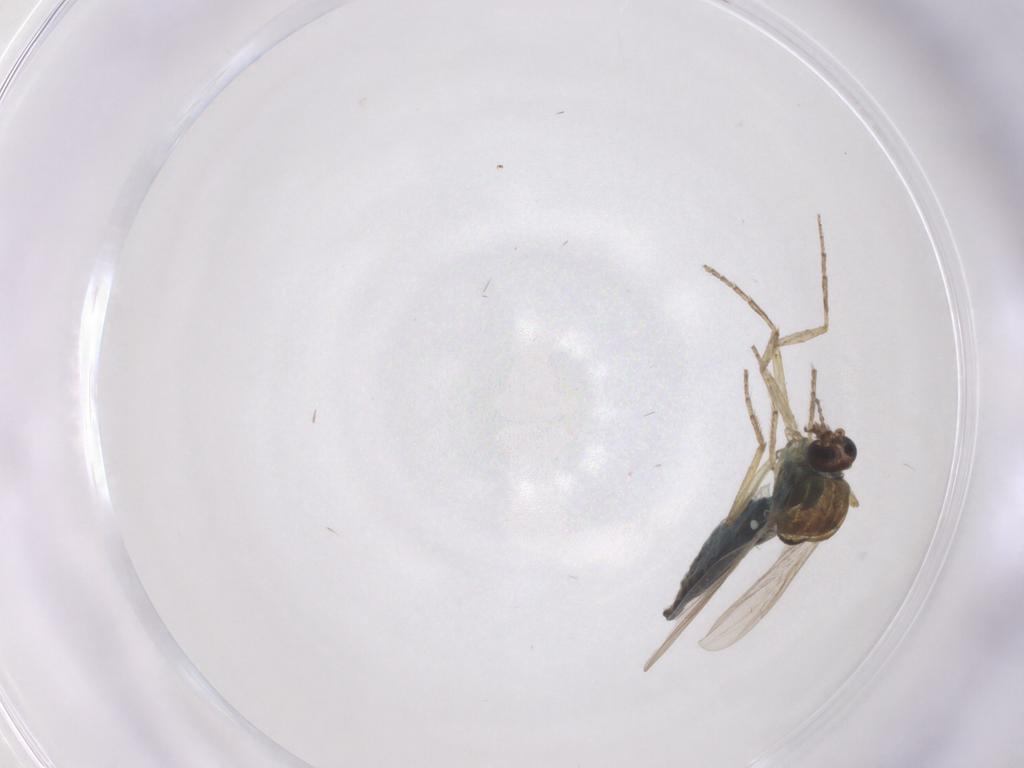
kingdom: Animalia
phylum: Arthropoda
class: Insecta
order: Diptera
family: Ceratopogonidae
